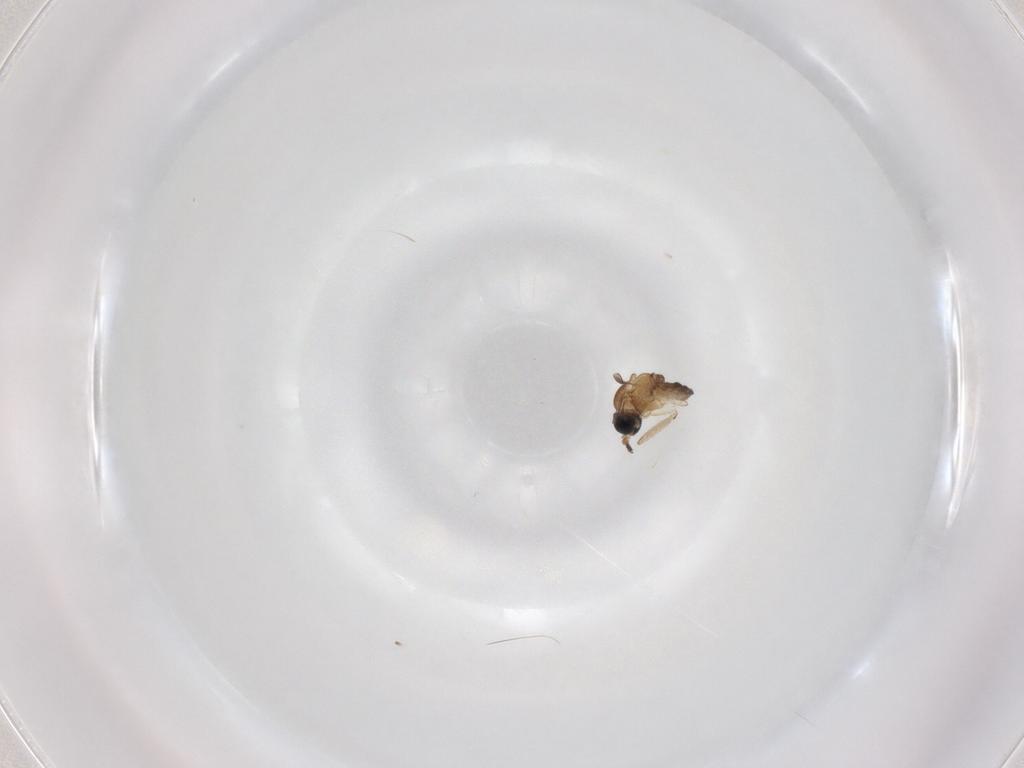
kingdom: Animalia
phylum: Arthropoda
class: Insecta
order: Diptera
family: Sciaridae
